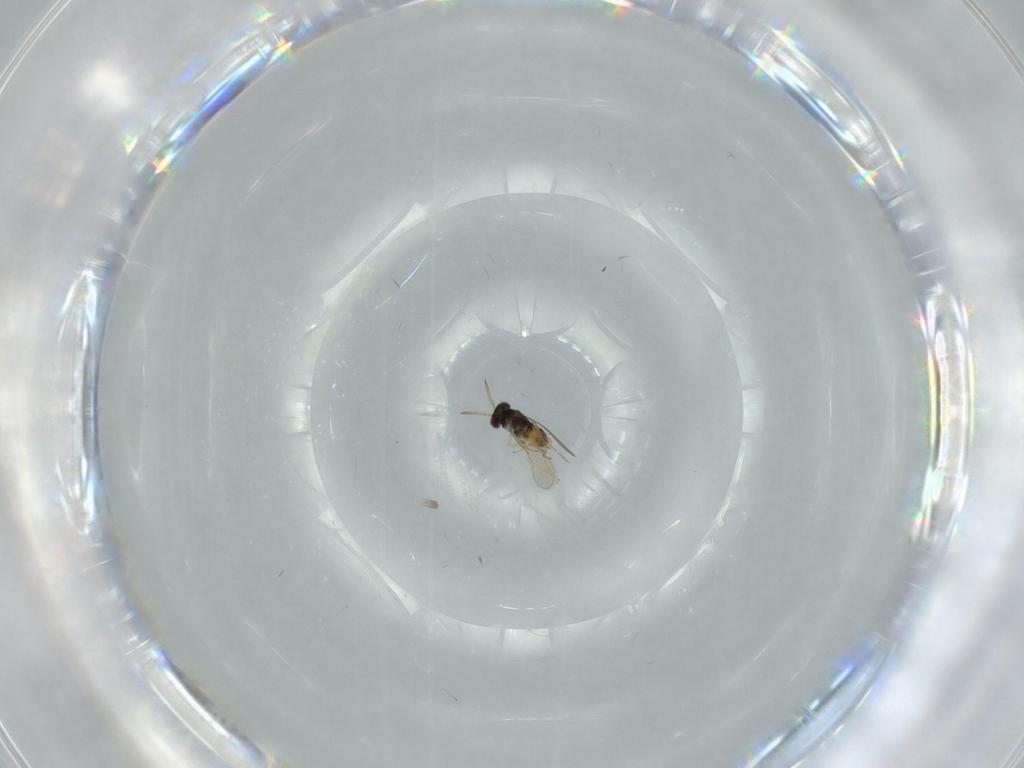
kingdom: Animalia
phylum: Arthropoda
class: Insecta
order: Hymenoptera
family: Aphelinidae
